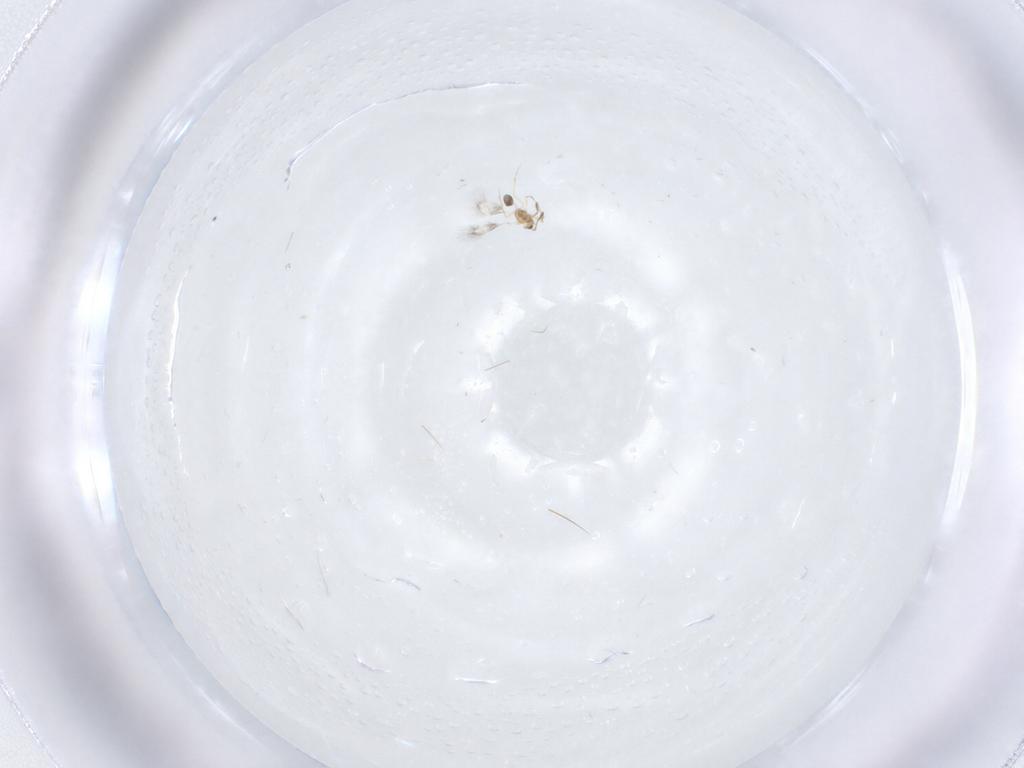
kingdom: Animalia
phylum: Arthropoda
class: Insecta
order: Hymenoptera
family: Mymarommatidae
